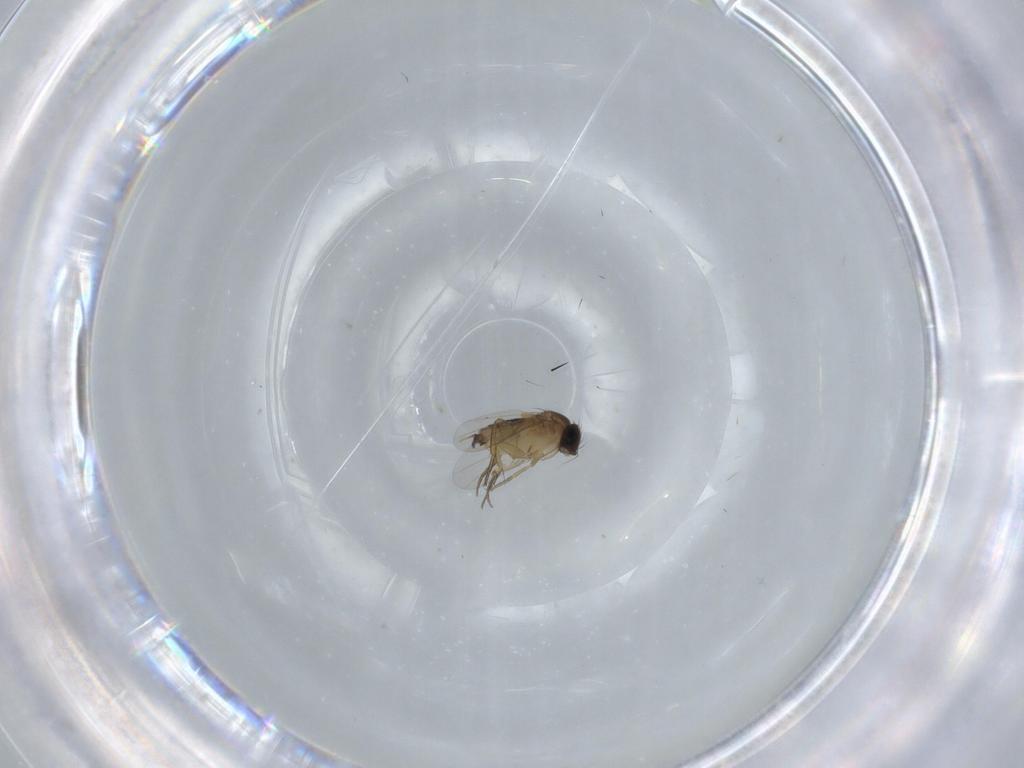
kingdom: Animalia
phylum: Arthropoda
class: Insecta
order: Diptera
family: Phoridae
